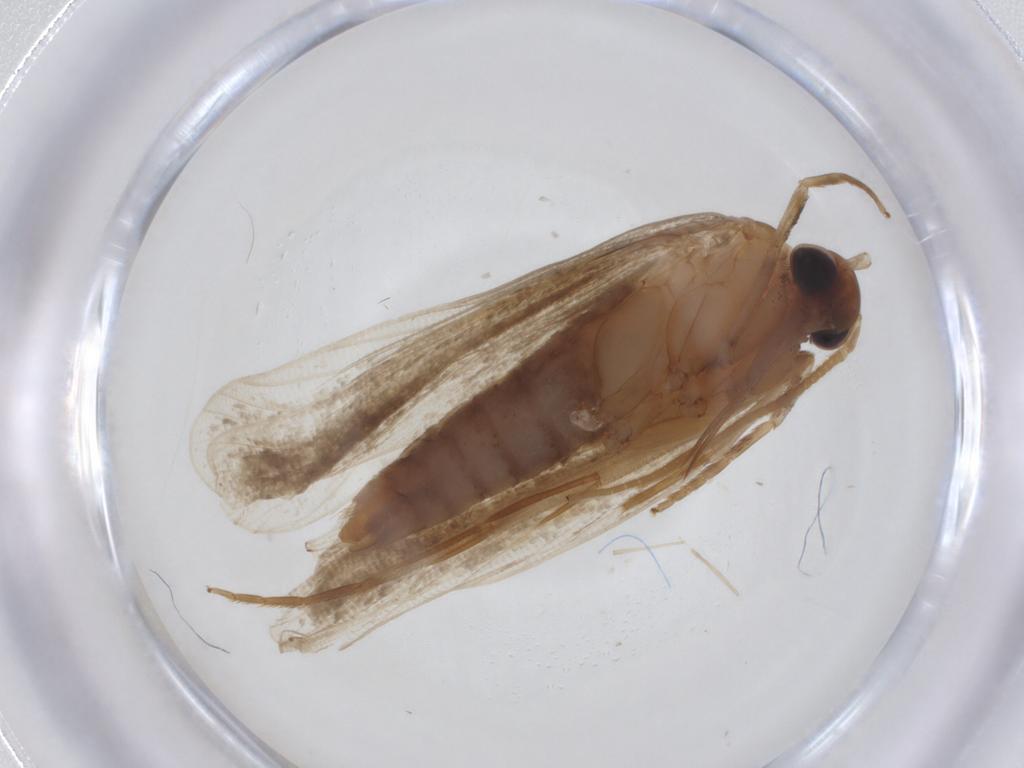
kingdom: Animalia
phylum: Arthropoda
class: Insecta
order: Lepidoptera
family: Lecithoceridae
